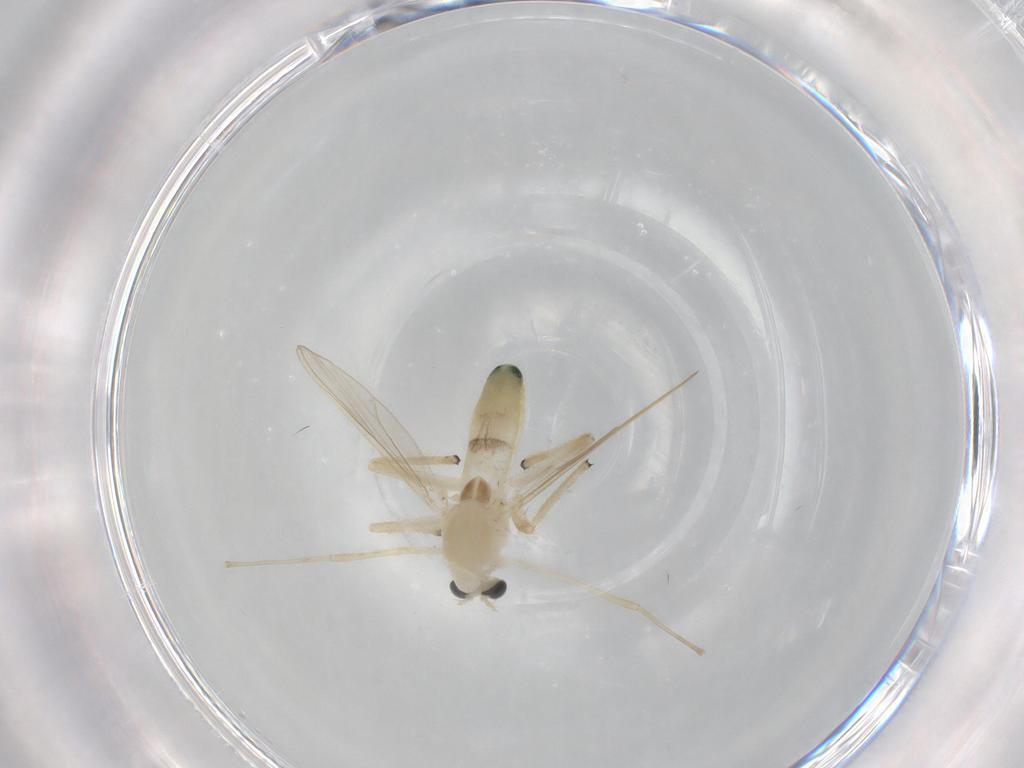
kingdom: Animalia
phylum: Arthropoda
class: Insecta
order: Diptera
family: Chironomidae
